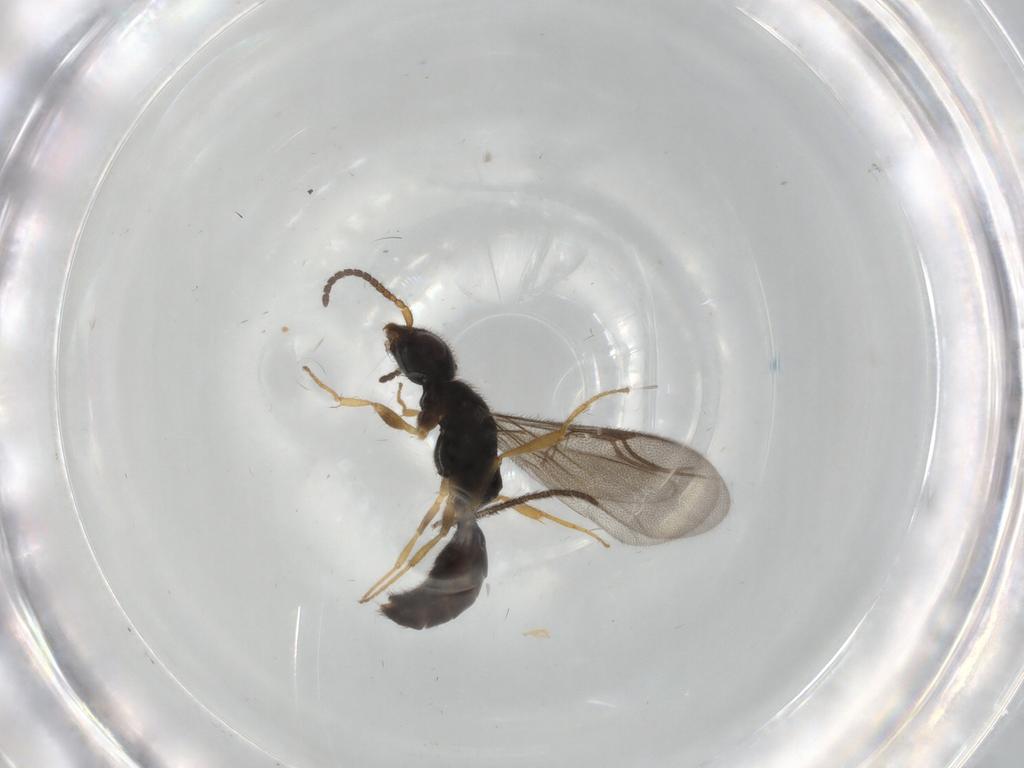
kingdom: Animalia
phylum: Arthropoda
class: Insecta
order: Hymenoptera
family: Bethylidae
